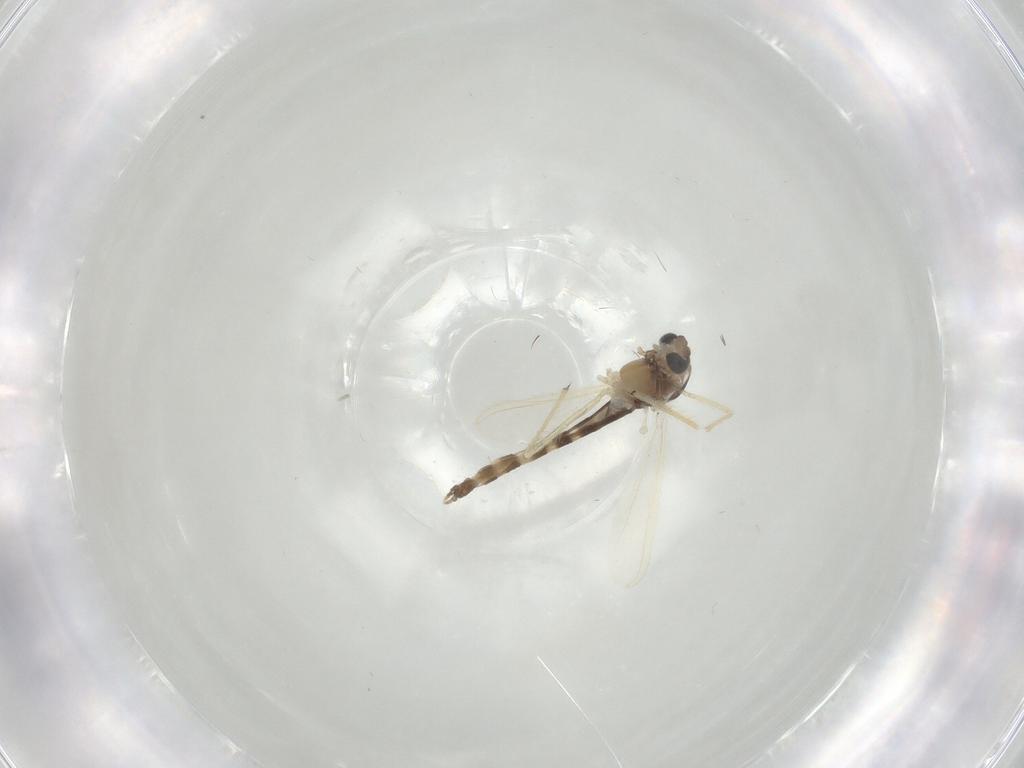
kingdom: Animalia
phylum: Arthropoda
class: Insecta
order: Diptera
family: Chironomidae
